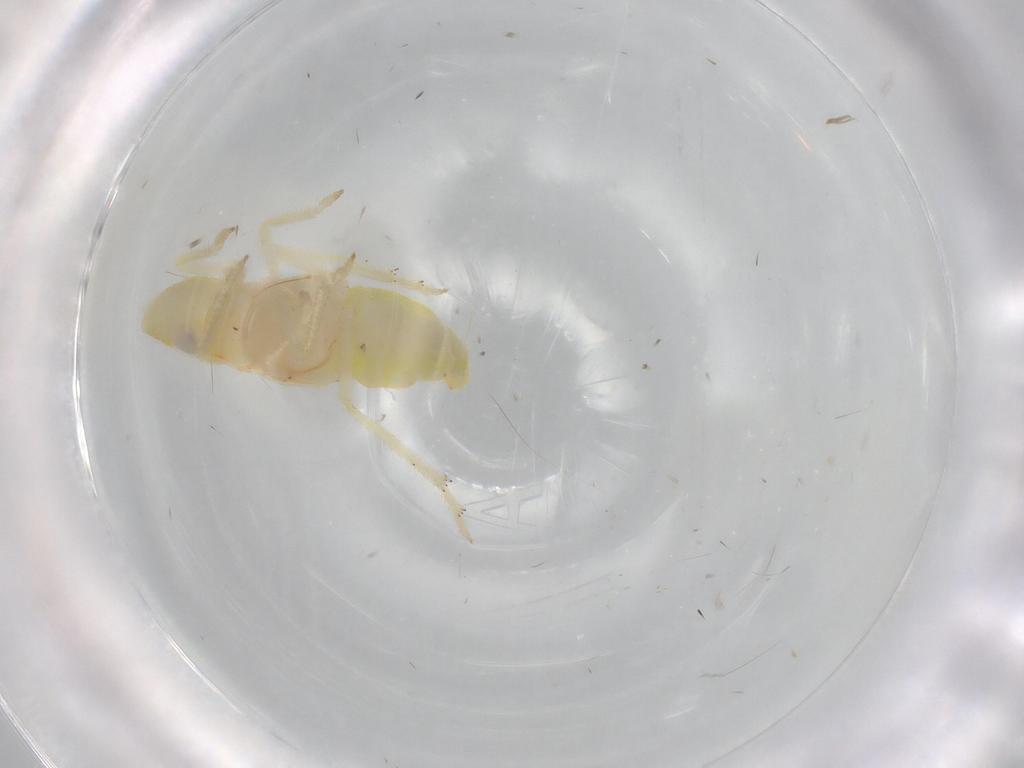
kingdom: Animalia
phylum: Arthropoda
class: Insecta
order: Hemiptera
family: Tropiduchidae
